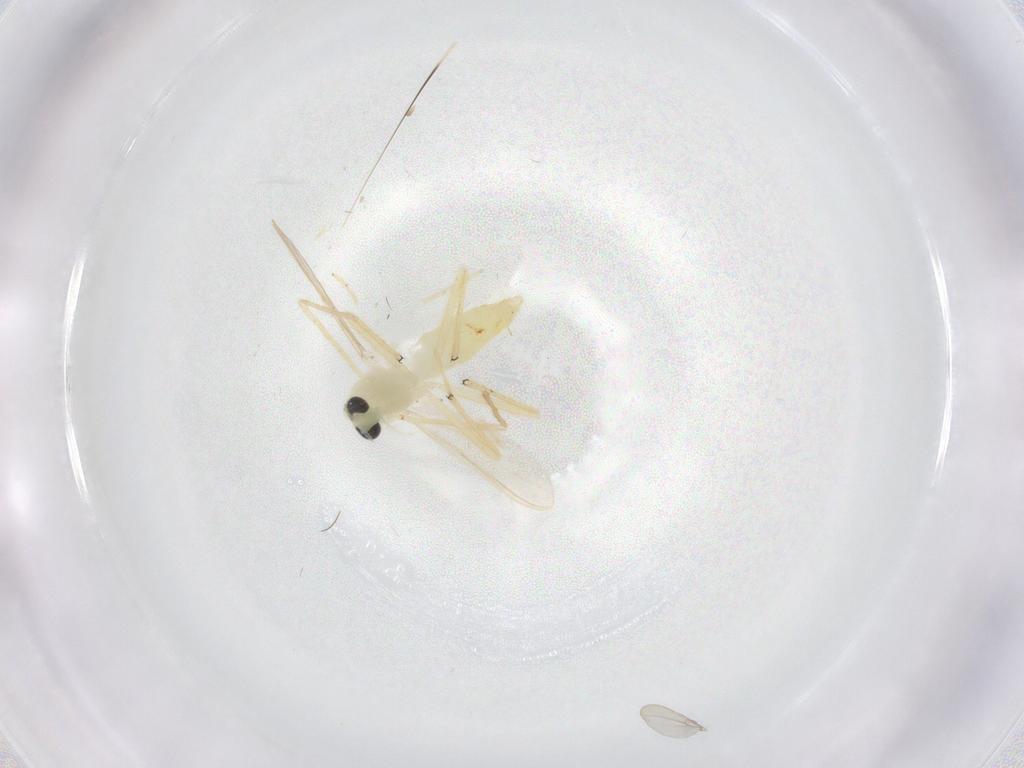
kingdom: Animalia
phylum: Arthropoda
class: Insecta
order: Diptera
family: Chironomidae
